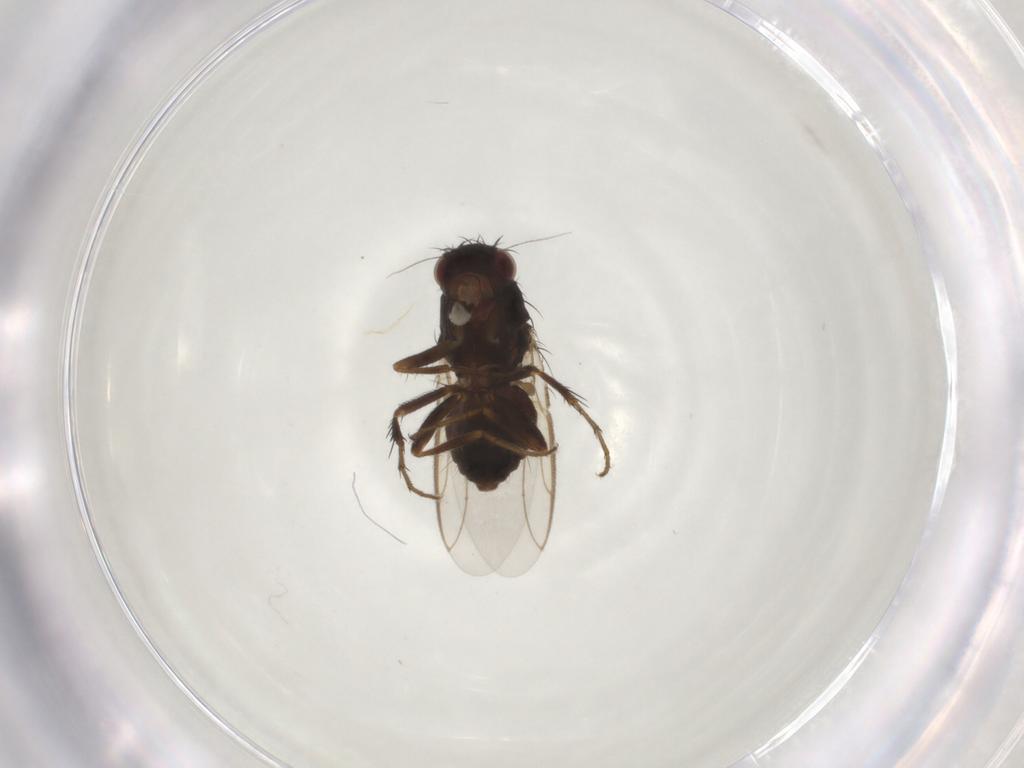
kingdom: Animalia
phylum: Arthropoda
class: Insecta
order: Diptera
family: Sphaeroceridae
